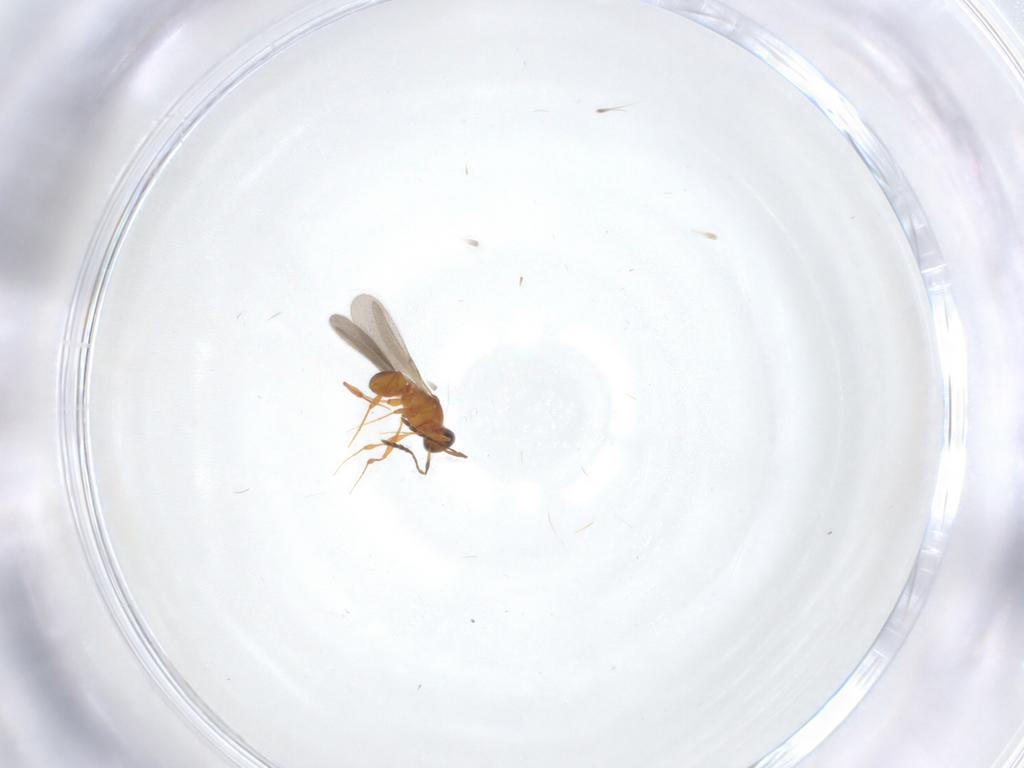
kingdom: Animalia
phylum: Arthropoda
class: Insecta
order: Hymenoptera
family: Platygastridae
